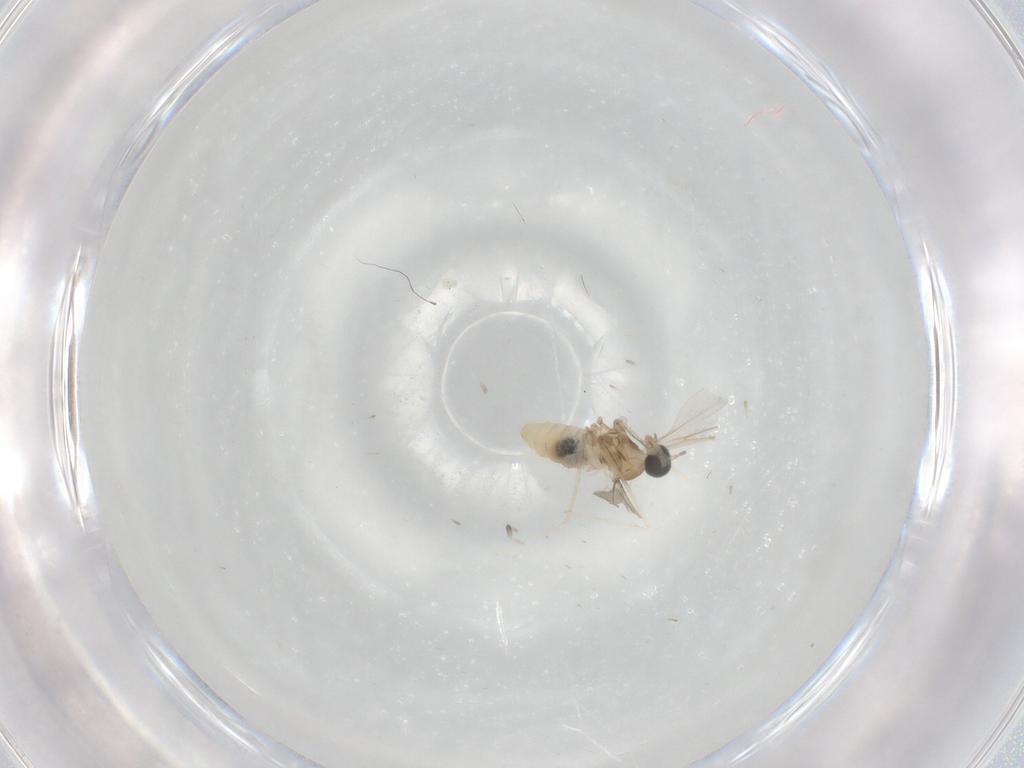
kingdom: Animalia
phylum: Arthropoda
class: Insecta
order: Diptera
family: Cecidomyiidae
